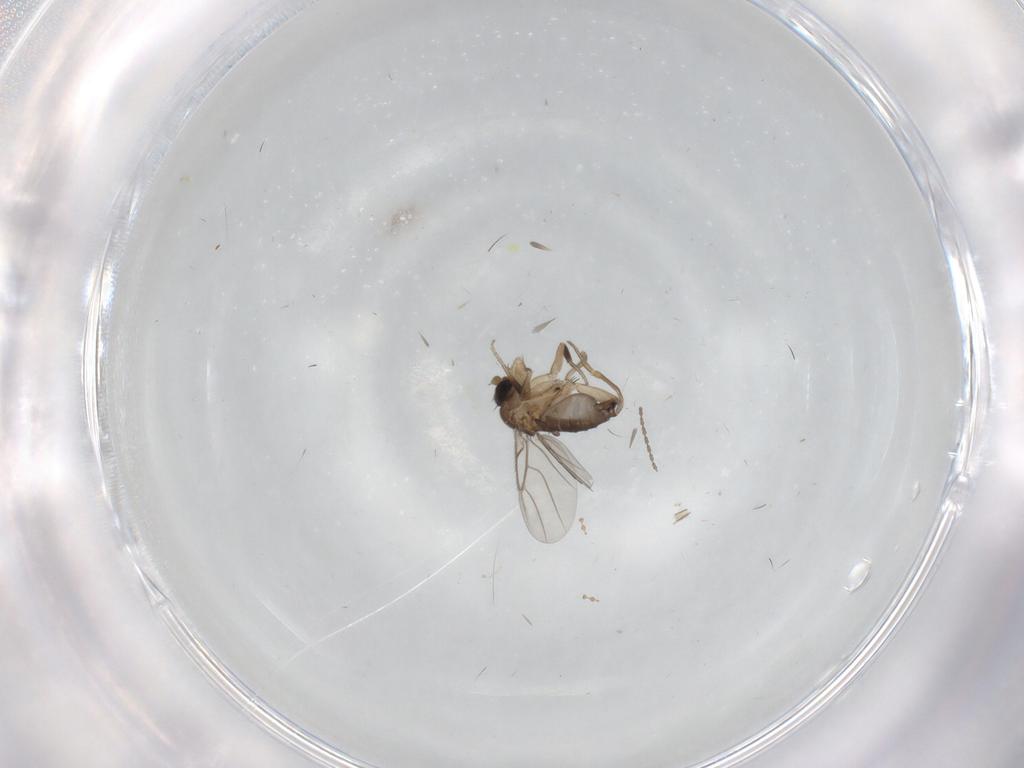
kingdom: Animalia
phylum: Arthropoda
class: Insecta
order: Diptera
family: Cecidomyiidae
